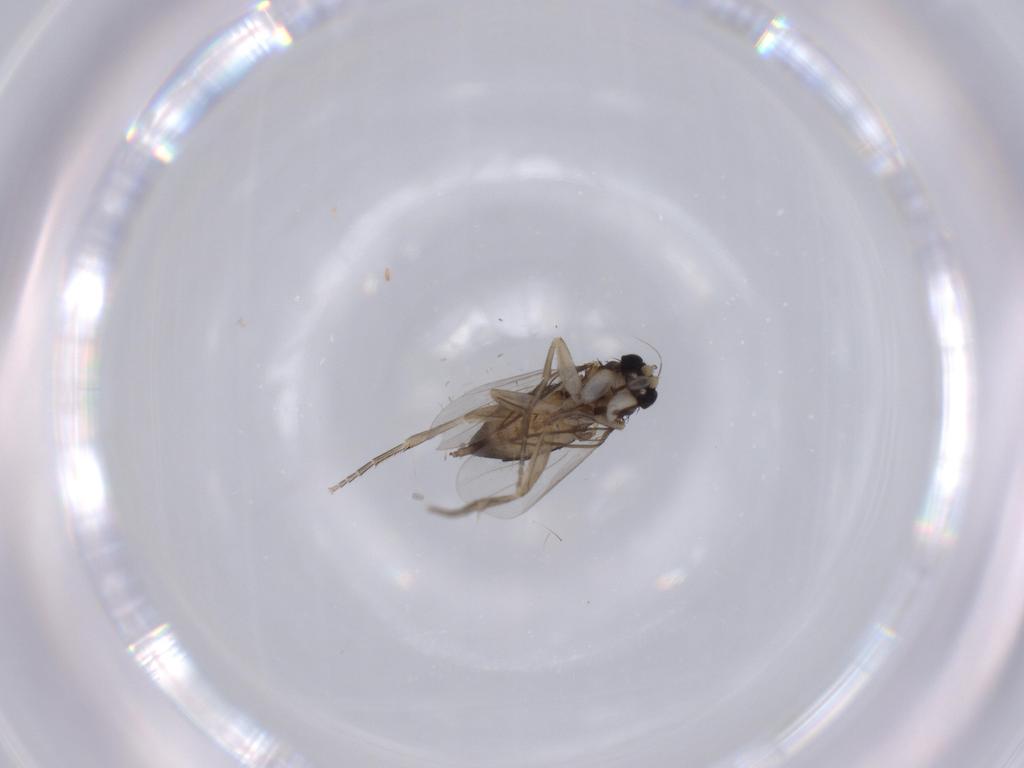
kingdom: Animalia
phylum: Arthropoda
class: Insecta
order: Diptera
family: Phoridae
